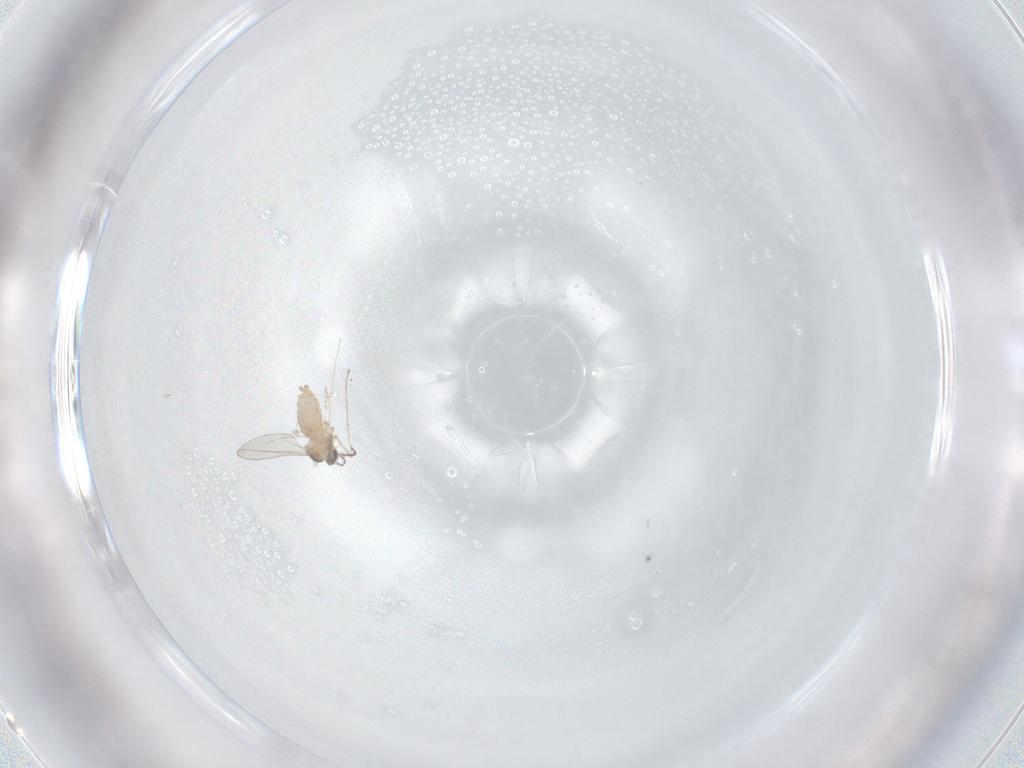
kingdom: Animalia
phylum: Arthropoda
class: Insecta
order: Diptera
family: Cecidomyiidae
